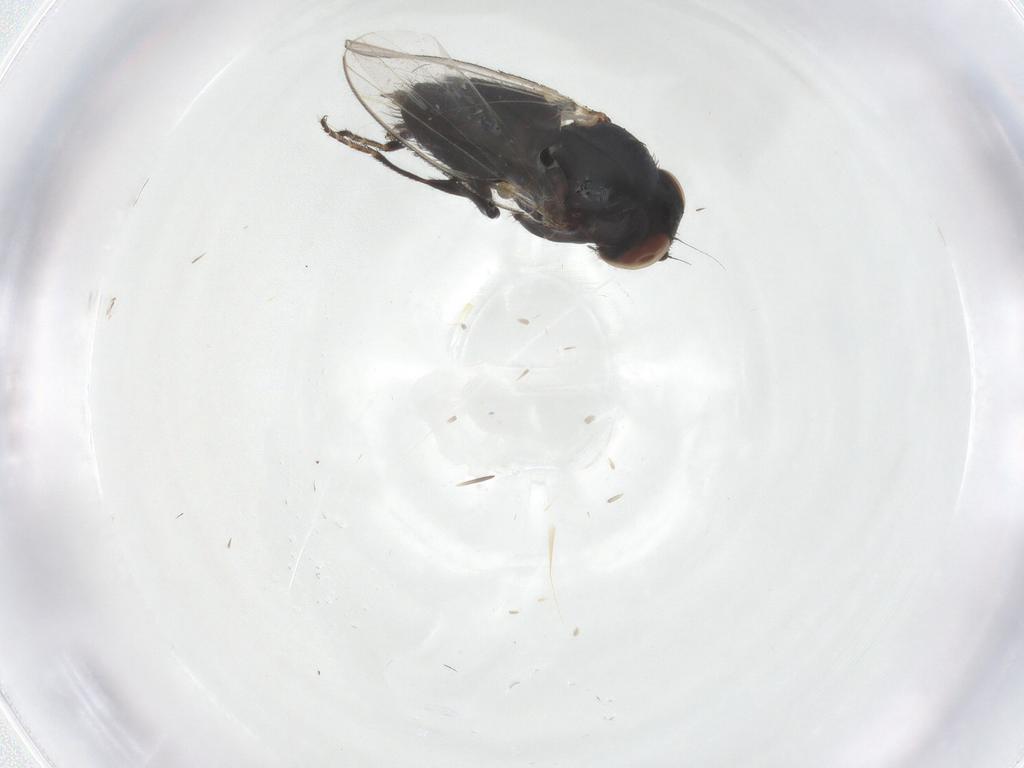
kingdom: Animalia
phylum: Arthropoda
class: Insecta
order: Diptera
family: Milichiidae
